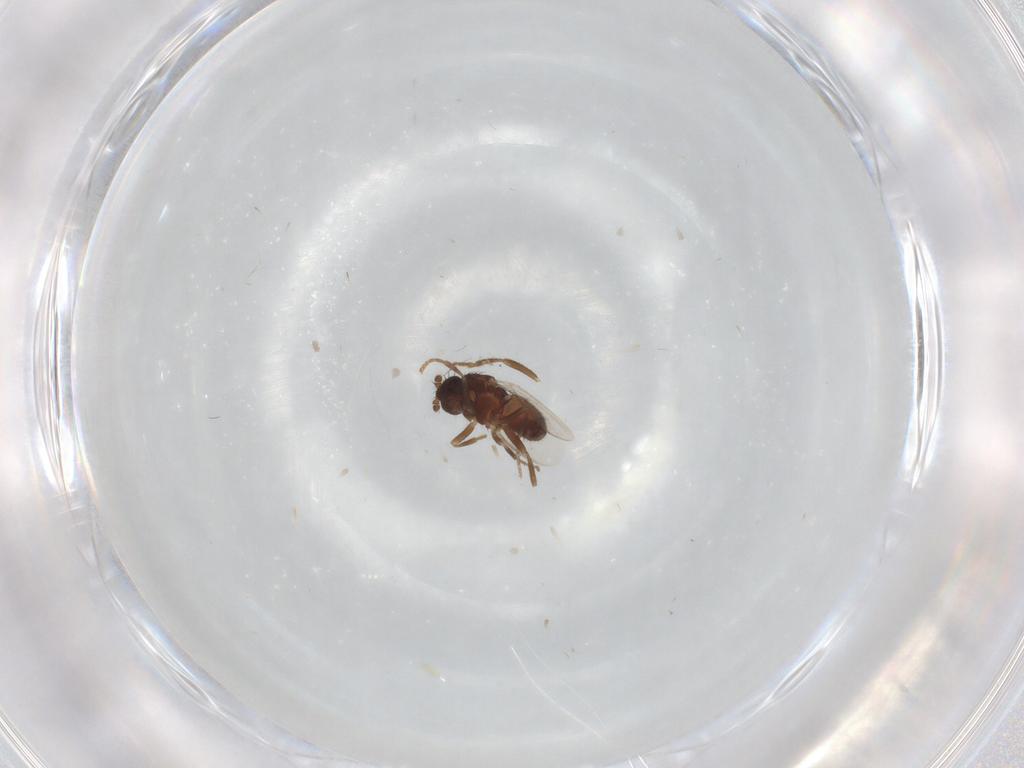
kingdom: Animalia
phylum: Arthropoda
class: Insecta
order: Diptera
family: Sphaeroceridae
